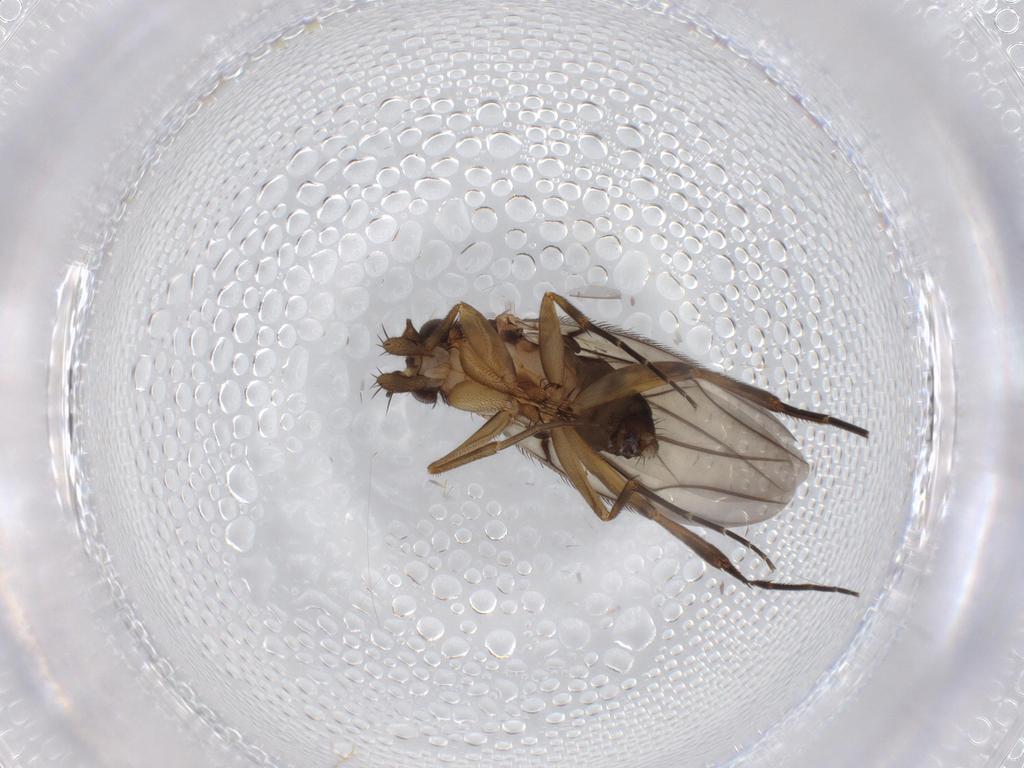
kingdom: Animalia
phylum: Arthropoda
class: Insecta
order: Diptera
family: Phoridae
